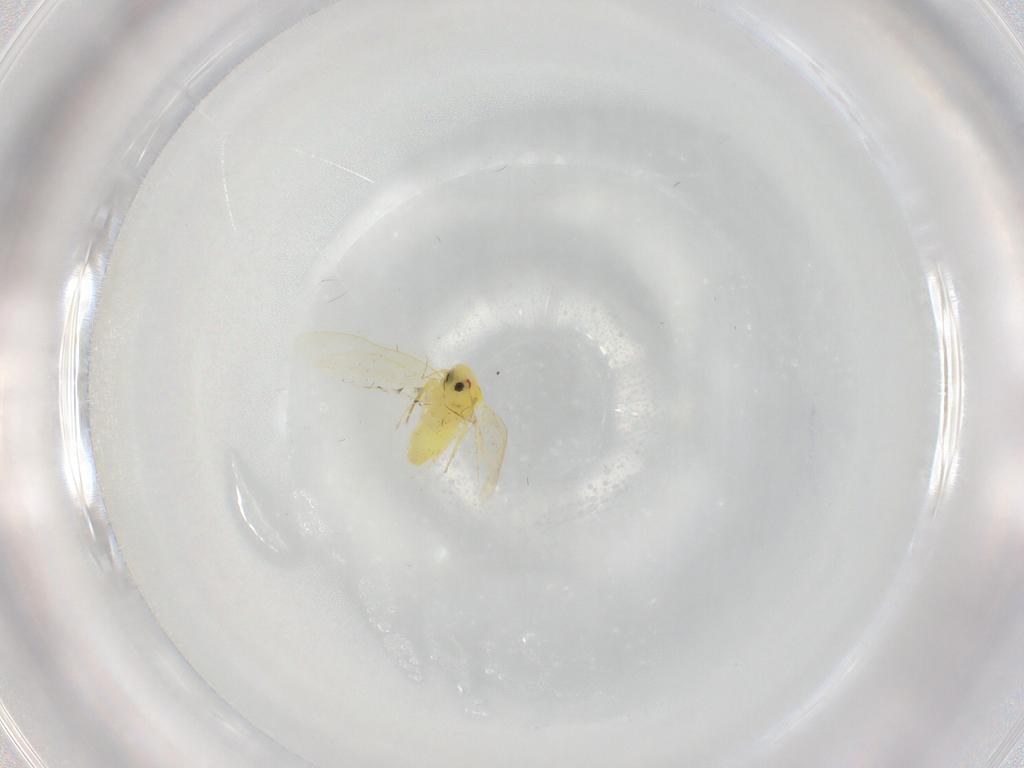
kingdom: Animalia
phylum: Arthropoda
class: Insecta
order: Hemiptera
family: Aleyrodidae
